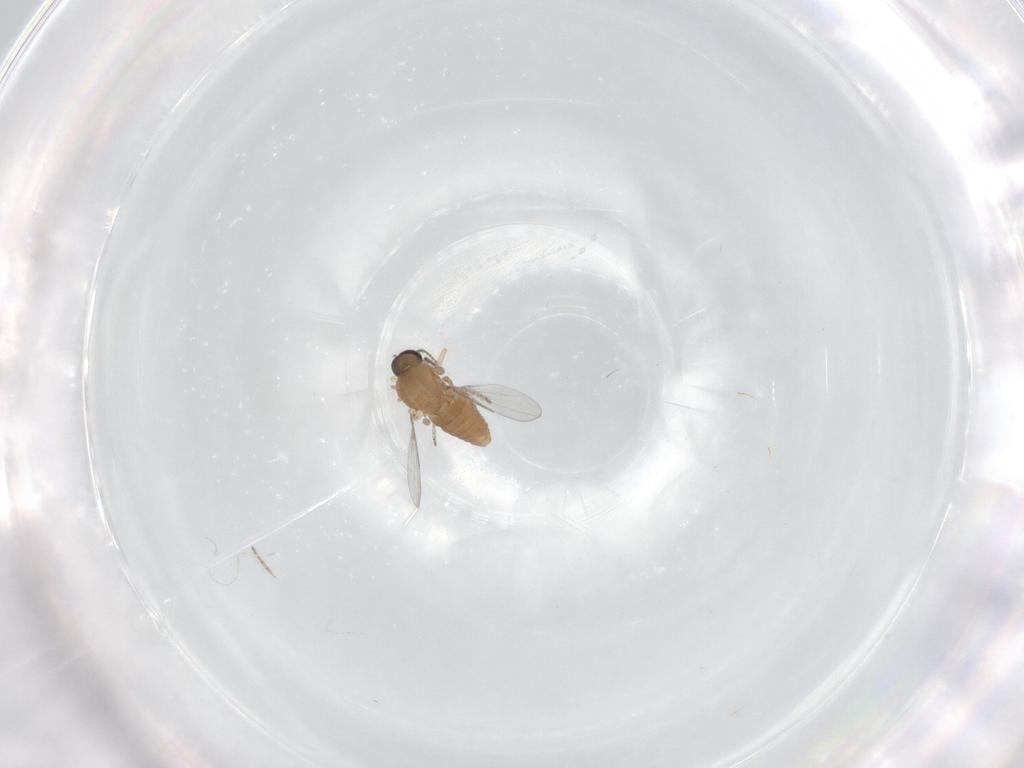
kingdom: Animalia
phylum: Arthropoda
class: Insecta
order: Diptera
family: Ceratopogonidae
